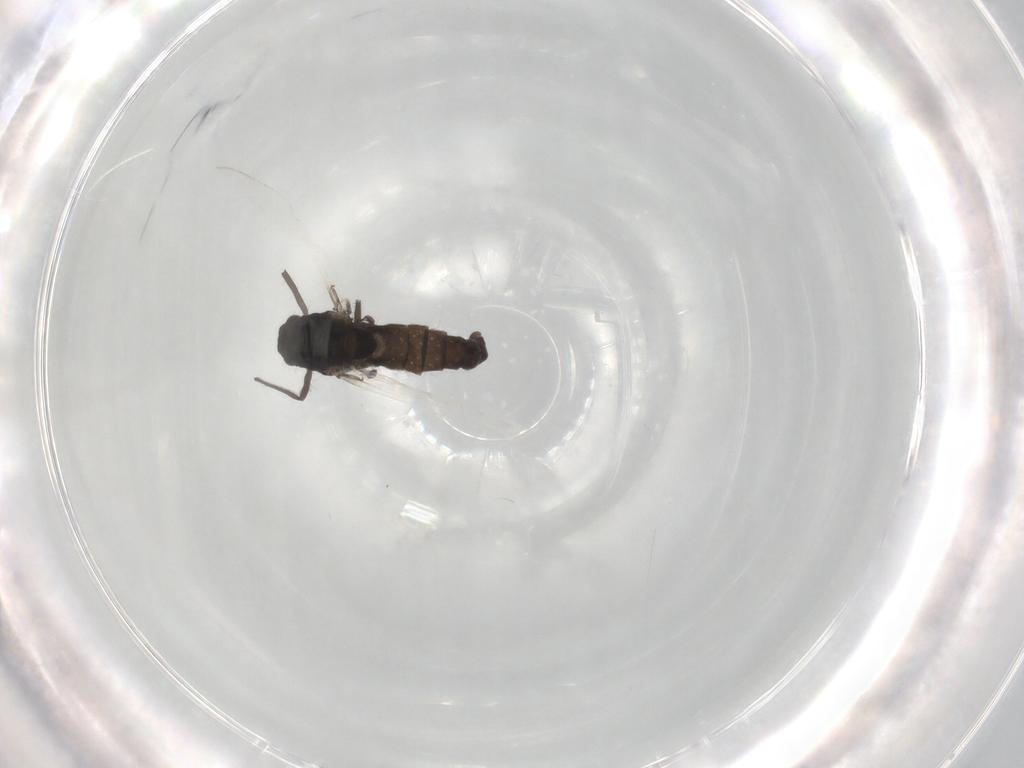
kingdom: Animalia
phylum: Arthropoda
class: Insecta
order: Diptera
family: Chironomidae
